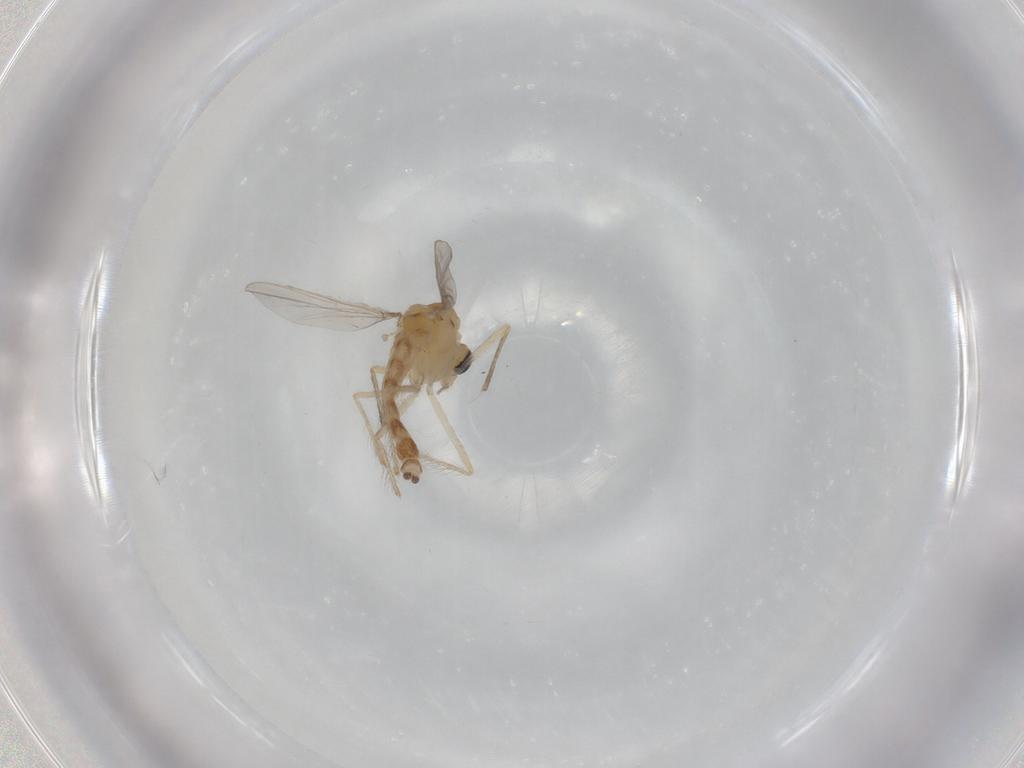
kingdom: Animalia
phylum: Arthropoda
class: Insecta
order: Diptera
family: Chironomidae
